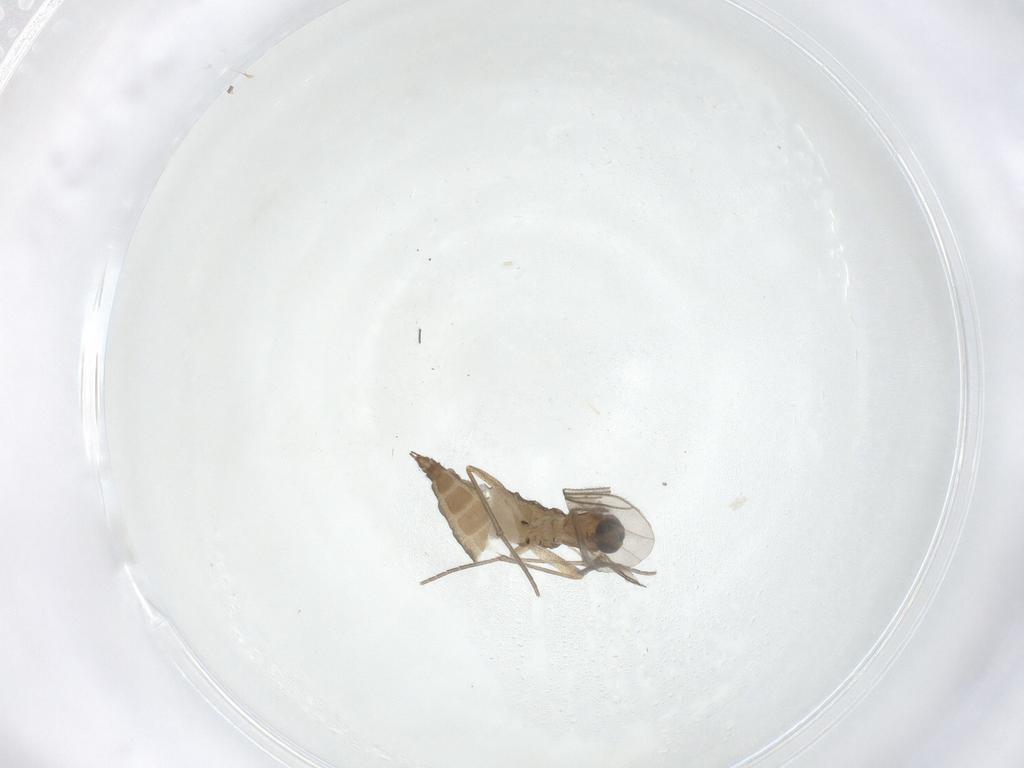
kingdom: Animalia
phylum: Arthropoda
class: Insecta
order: Diptera
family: Sciaridae
